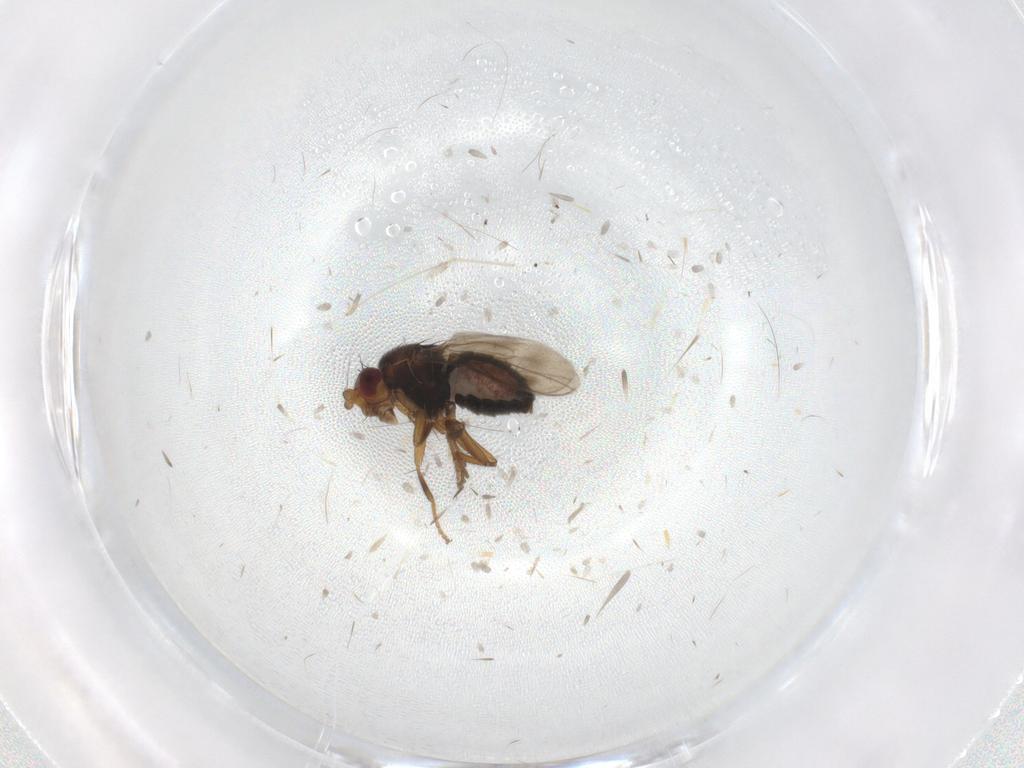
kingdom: Animalia
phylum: Arthropoda
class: Insecta
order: Diptera
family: Sphaeroceridae
